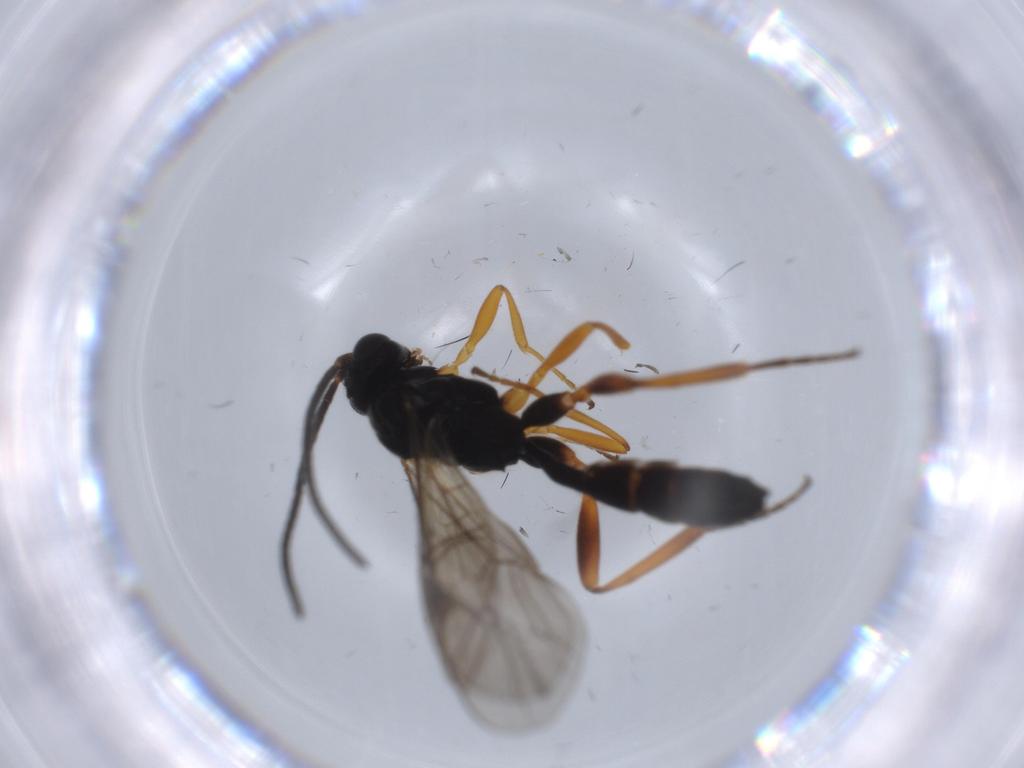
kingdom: Animalia
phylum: Arthropoda
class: Insecta
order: Hymenoptera
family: Ichneumonidae
